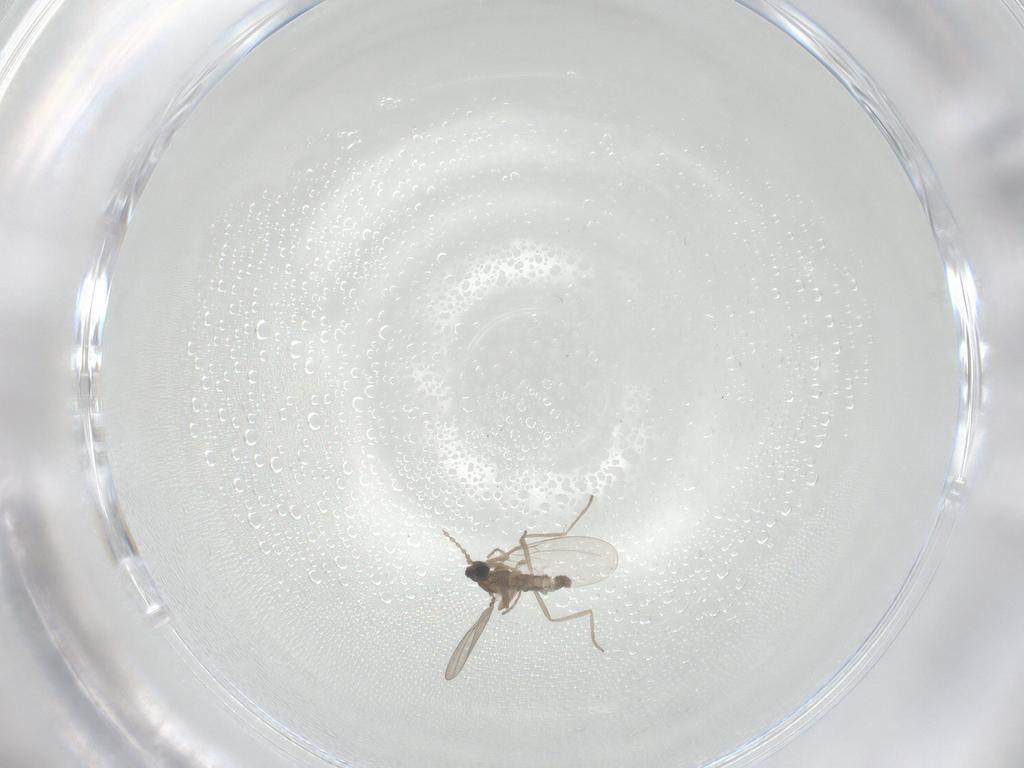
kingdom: Animalia
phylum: Arthropoda
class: Insecta
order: Diptera
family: Cecidomyiidae
